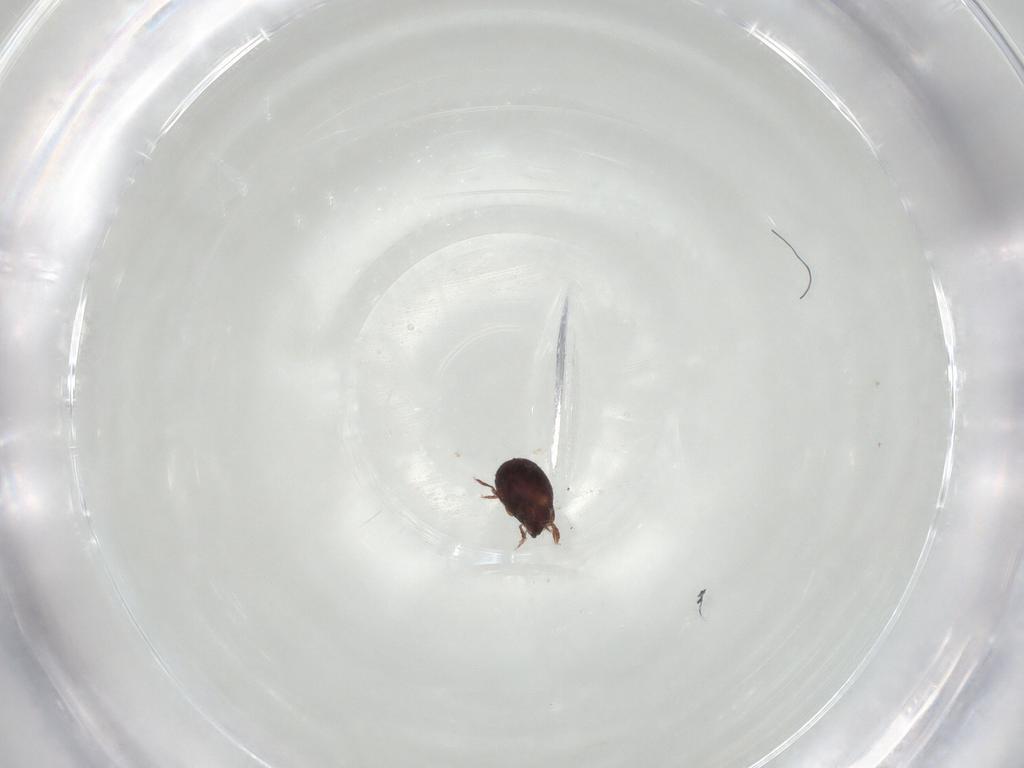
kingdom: Animalia
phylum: Arthropoda
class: Arachnida
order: Sarcoptiformes
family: Humerobatidae
